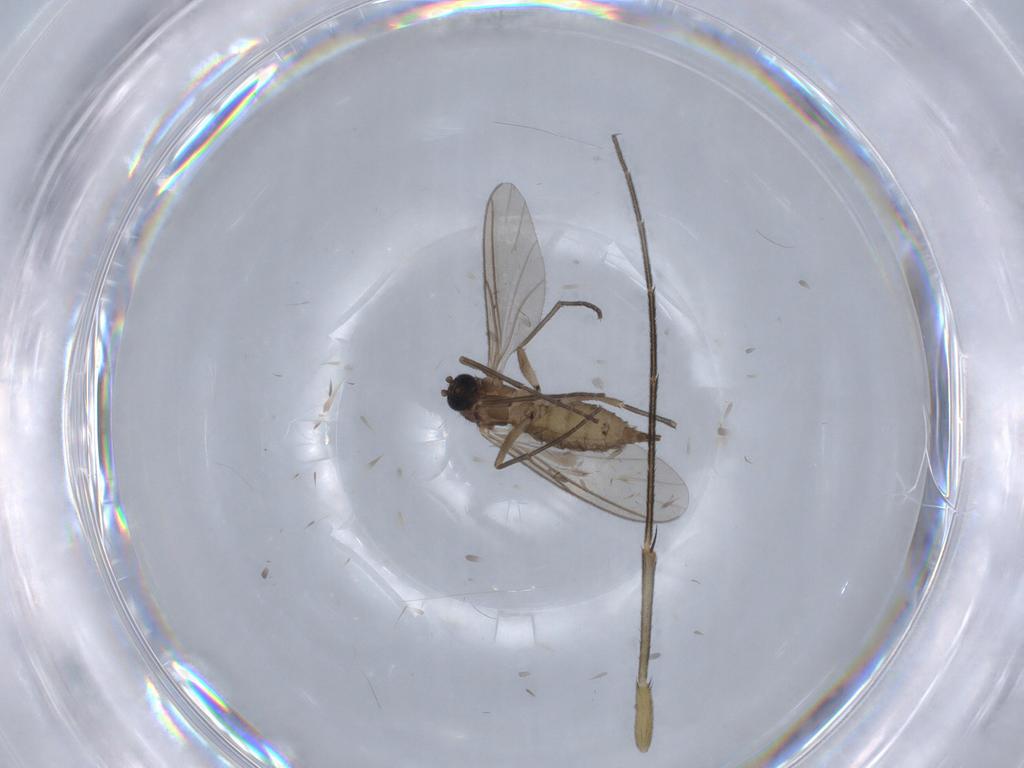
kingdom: Animalia
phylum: Arthropoda
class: Insecta
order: Diptera
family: Sciaridae
